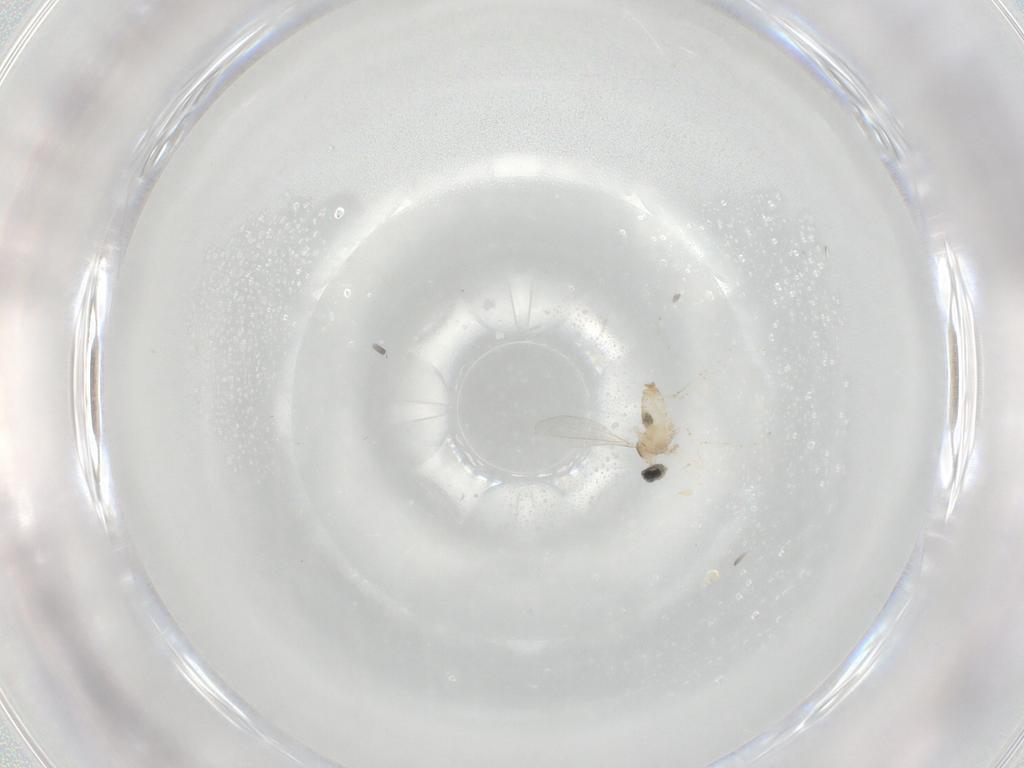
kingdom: Animalia
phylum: Arthropoda
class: Insecta
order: Diptera
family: Cecidomyiidae
